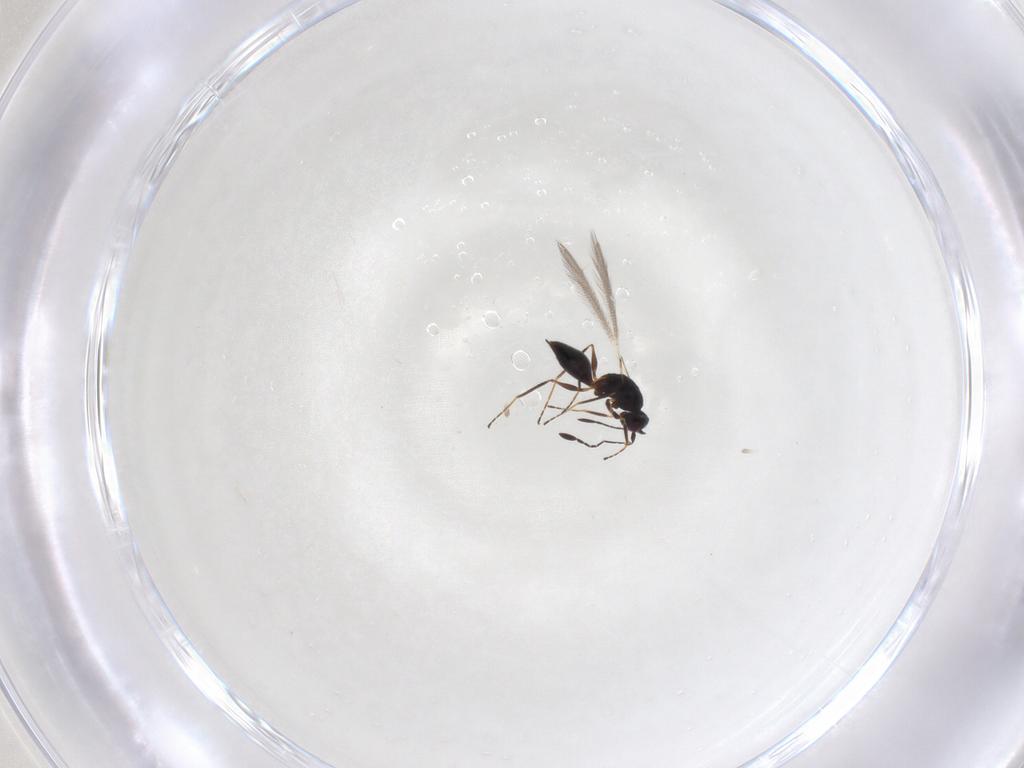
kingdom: Animalia
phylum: Arthropoda
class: Insecta
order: Hymenoptera
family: Mymaridae
